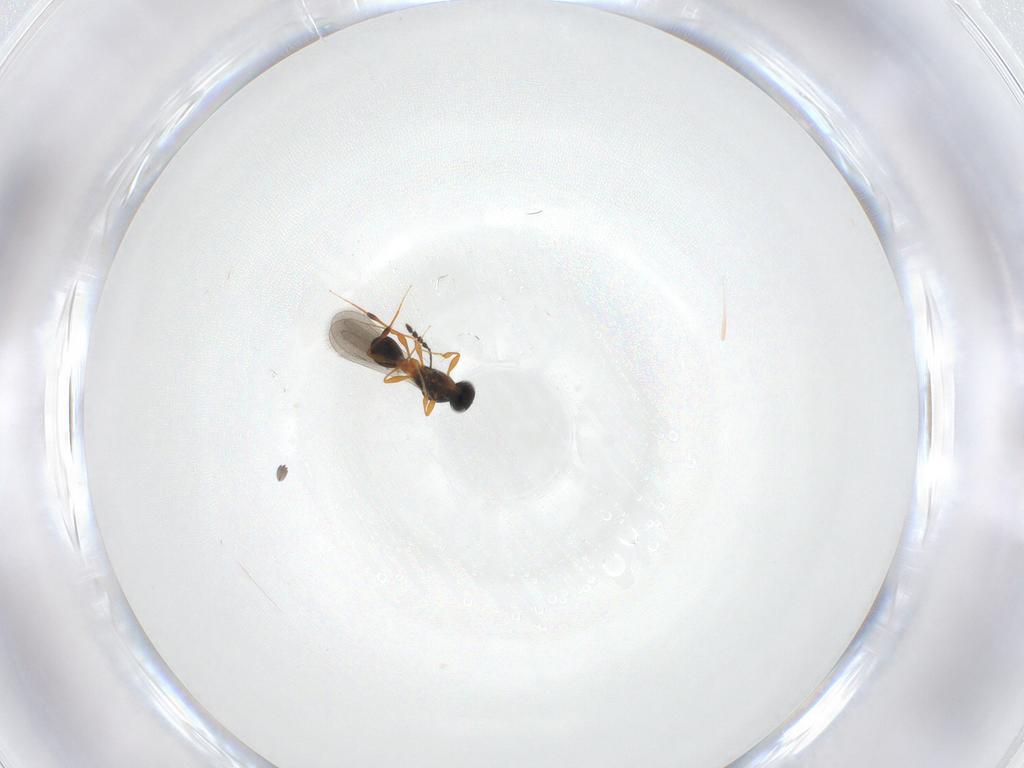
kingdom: Animalia
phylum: Arthropoda
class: Insecta
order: Hymenoptera
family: Platygastridae
